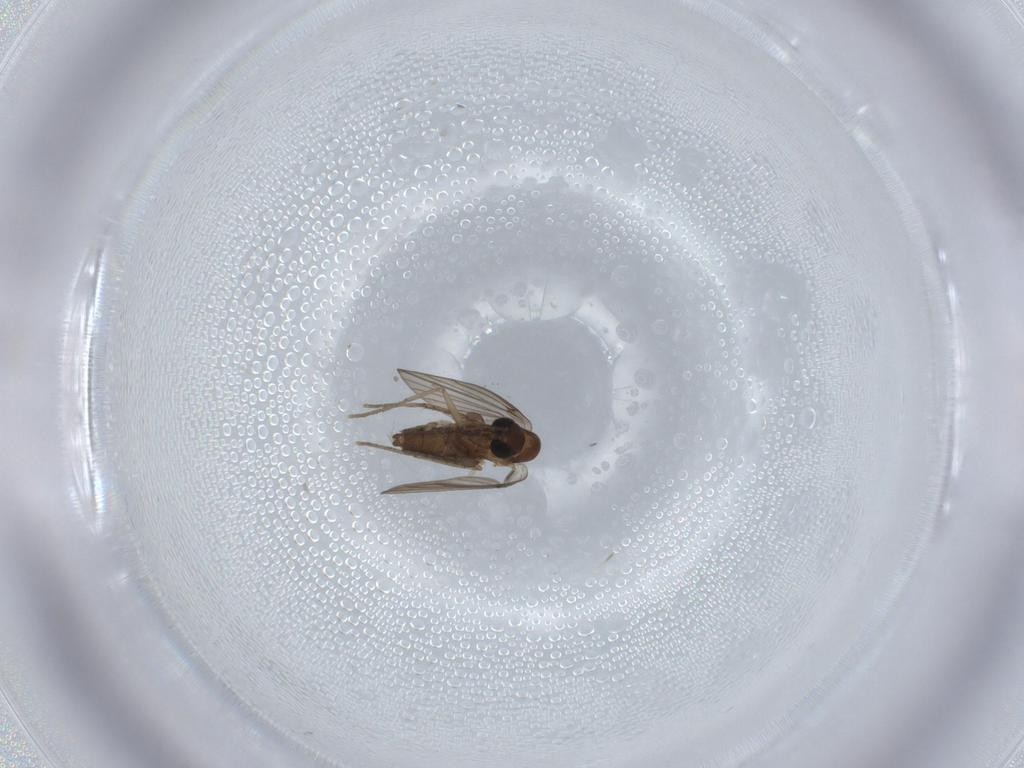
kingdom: Animalia
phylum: Arthropoda
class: Insecta
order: Diptera
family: Psychodidae
